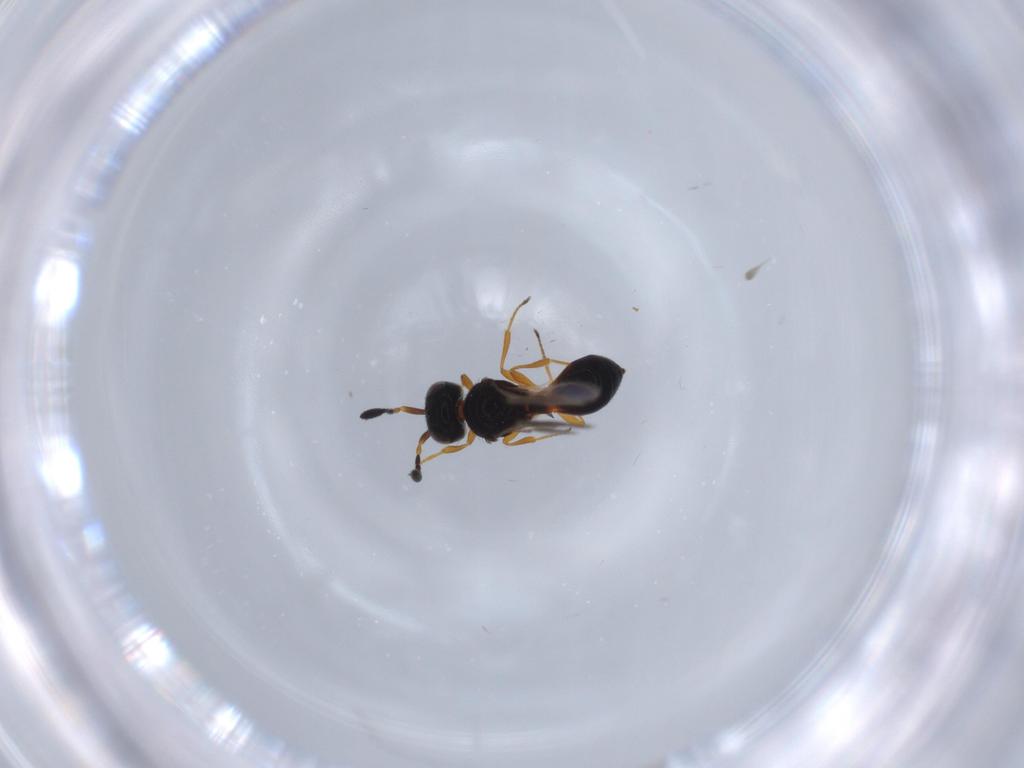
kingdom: Animalia
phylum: Arthropoda
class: Insecta
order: Hymenoptera
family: Scelionidae
